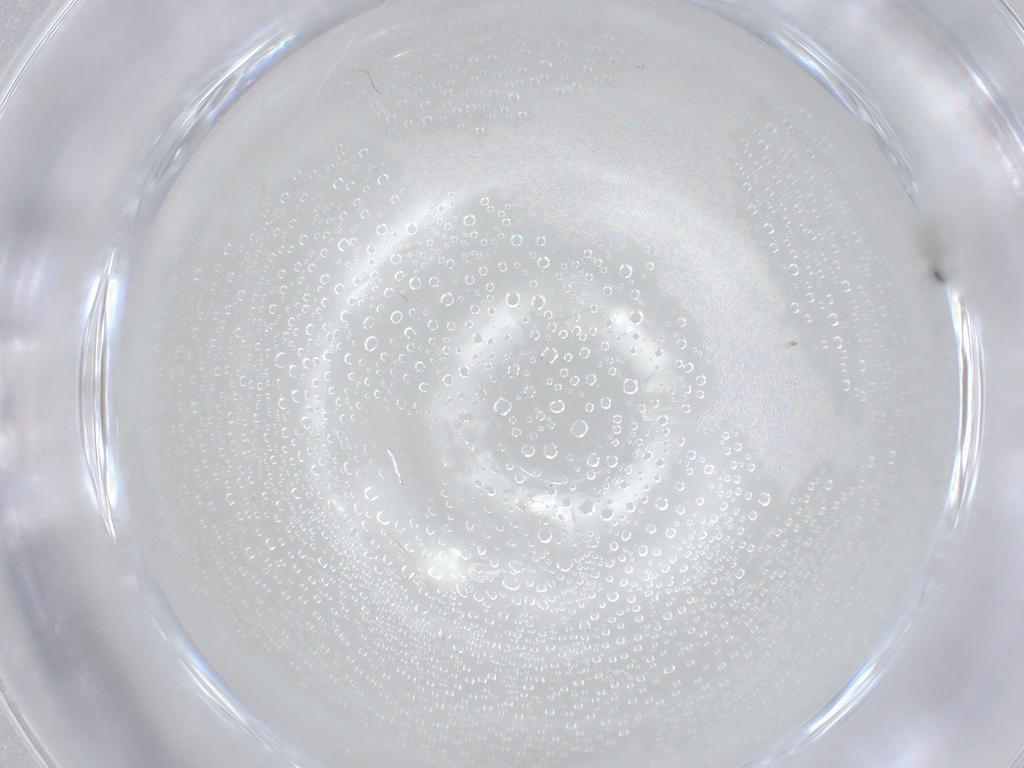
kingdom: Animalia
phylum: Arthropoda
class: Insecta
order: Diptera
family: Cecidomyiidae
